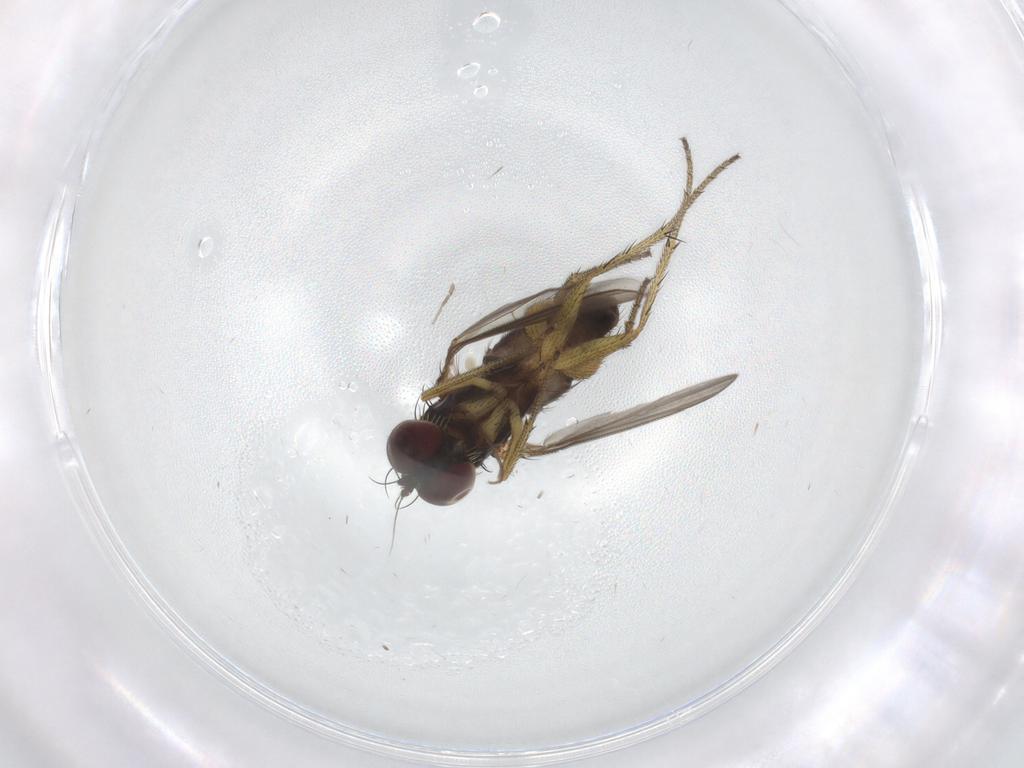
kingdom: Animalia
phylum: Arthropoda
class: Insecta
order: Diptera
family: Chironomidae
